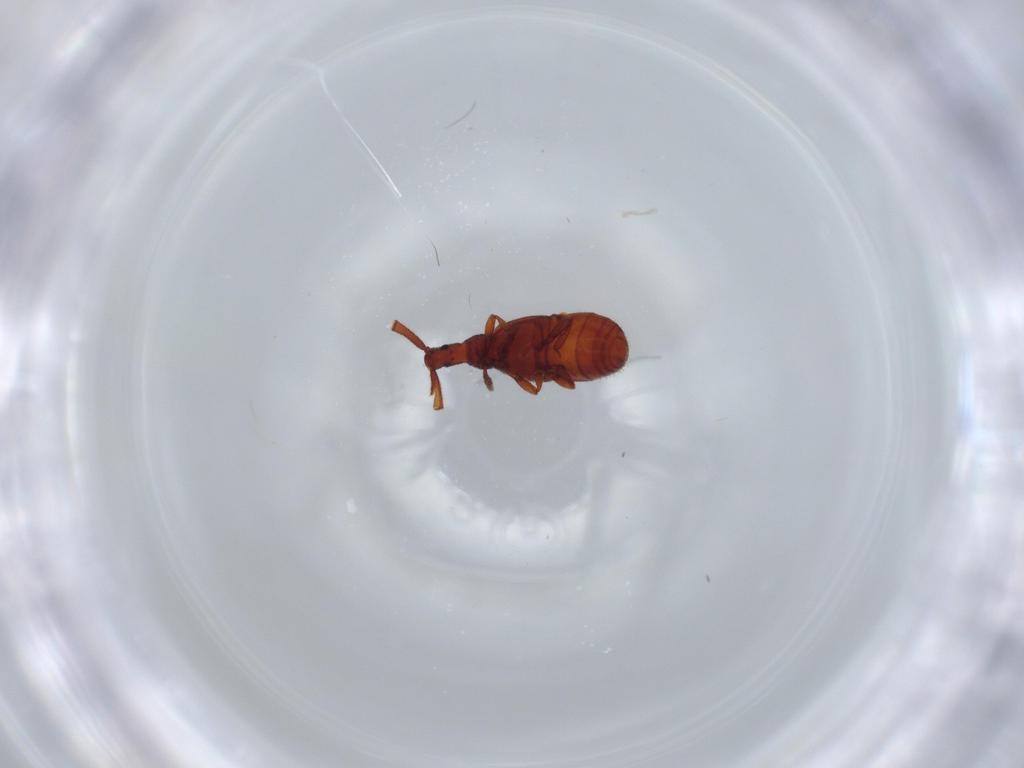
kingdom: Animalia
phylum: Arthropoda
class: Insecta
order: Coleoptera
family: Staphylinidae
